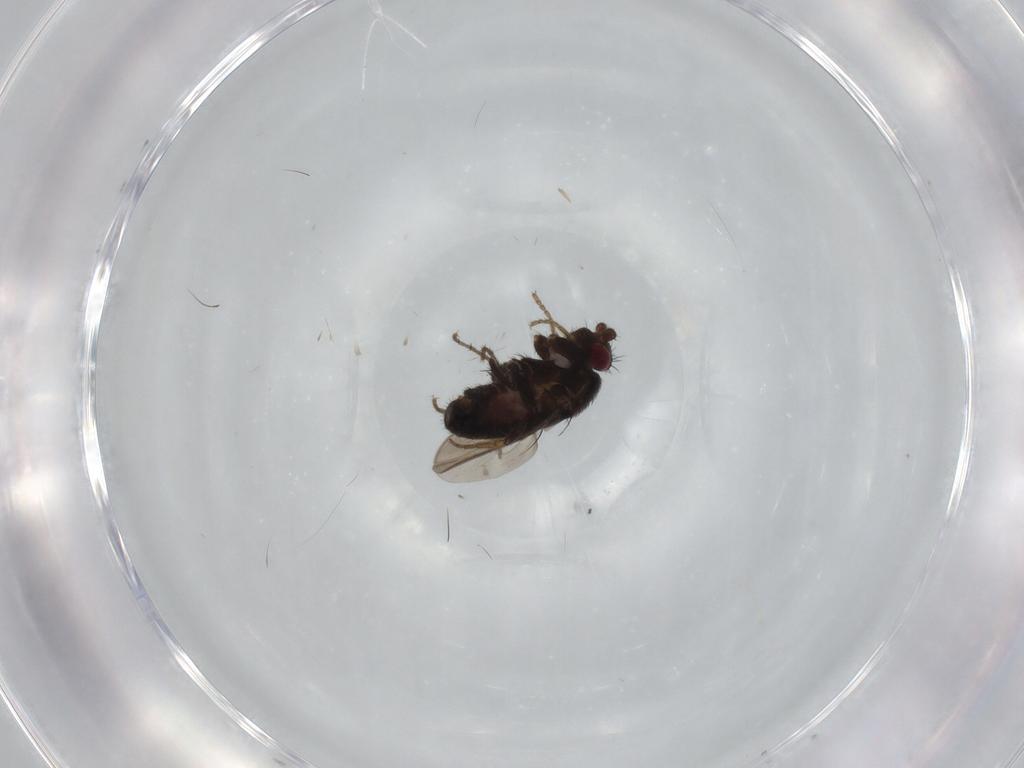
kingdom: Animalia
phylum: Arthropoda
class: Insecta
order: Diptera
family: Sphaeroceridae
